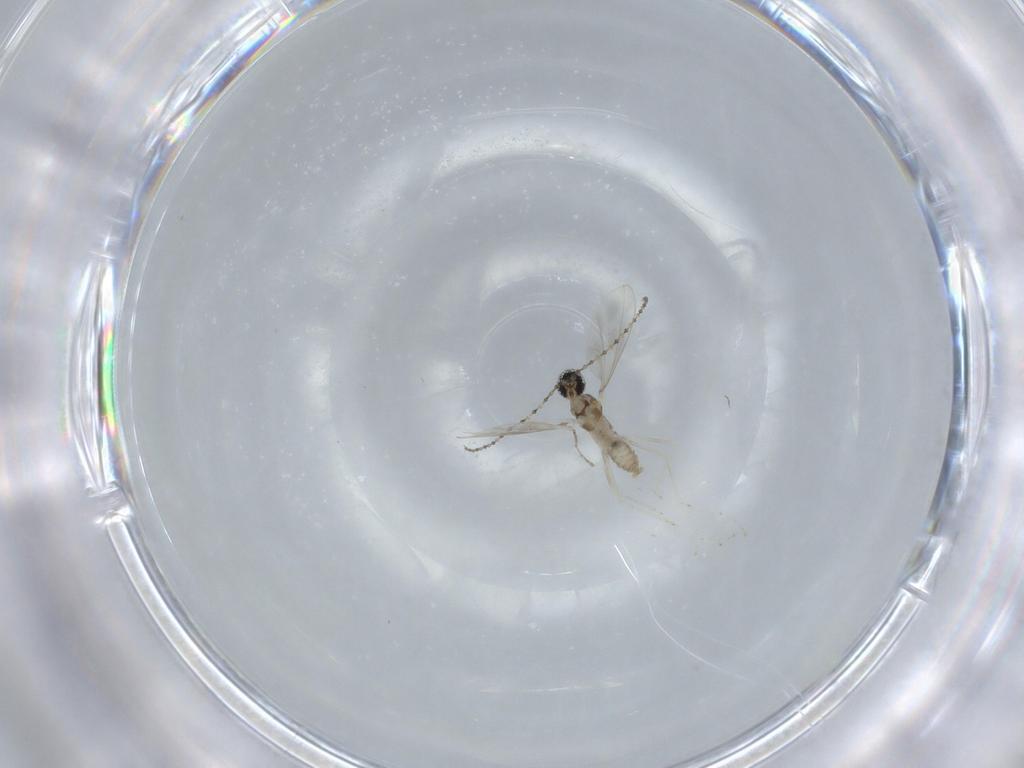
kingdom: Animalia
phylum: Arthropoda
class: Insecta
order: Diptera
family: Cecidomyiidae
